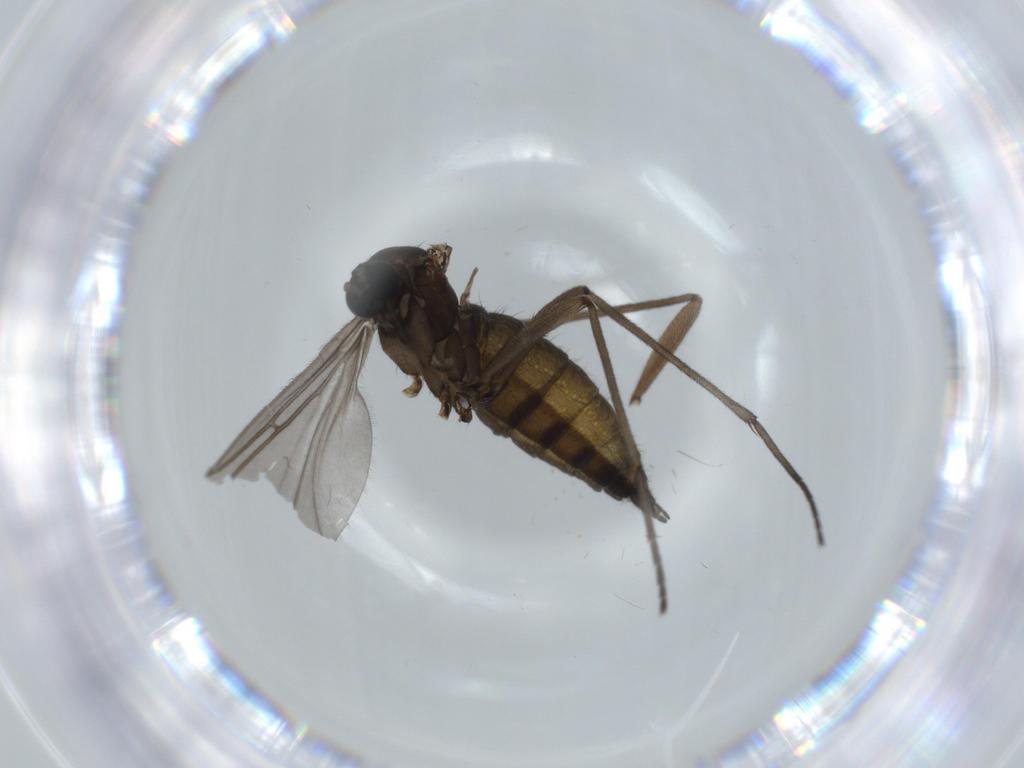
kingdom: Animalia
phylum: Arthropoda
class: Insecta
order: Diptera
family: Sciaridae
